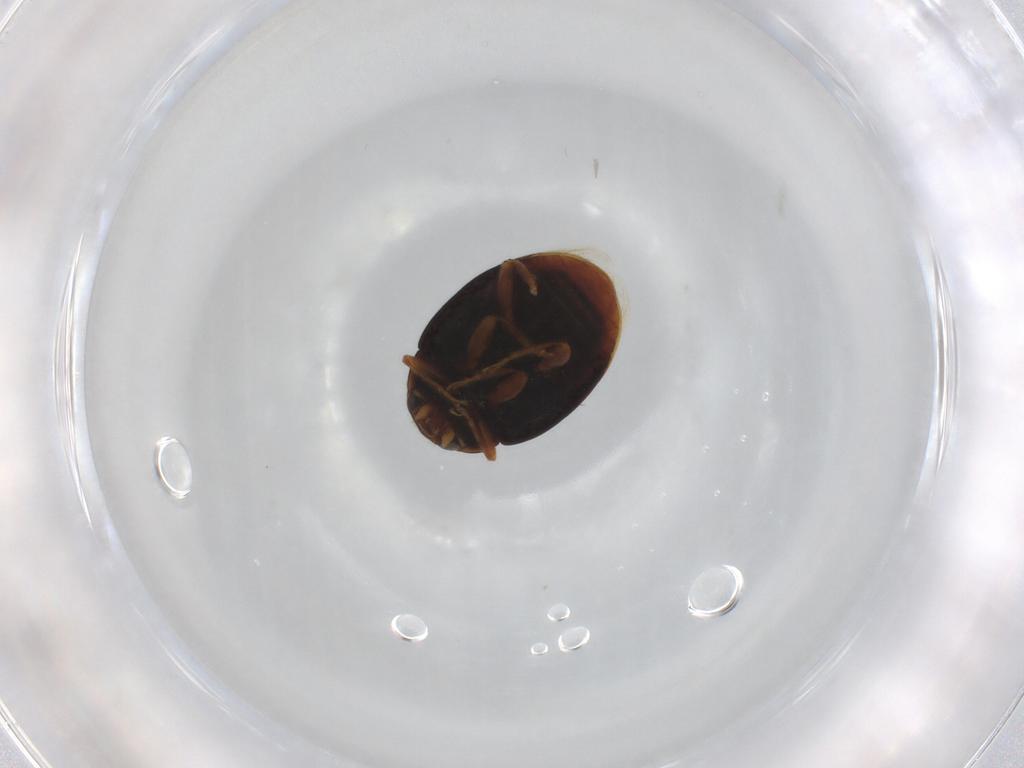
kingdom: Animalia
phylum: Arthropoda
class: Insecta
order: Coleoptera
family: Coccinellidae
